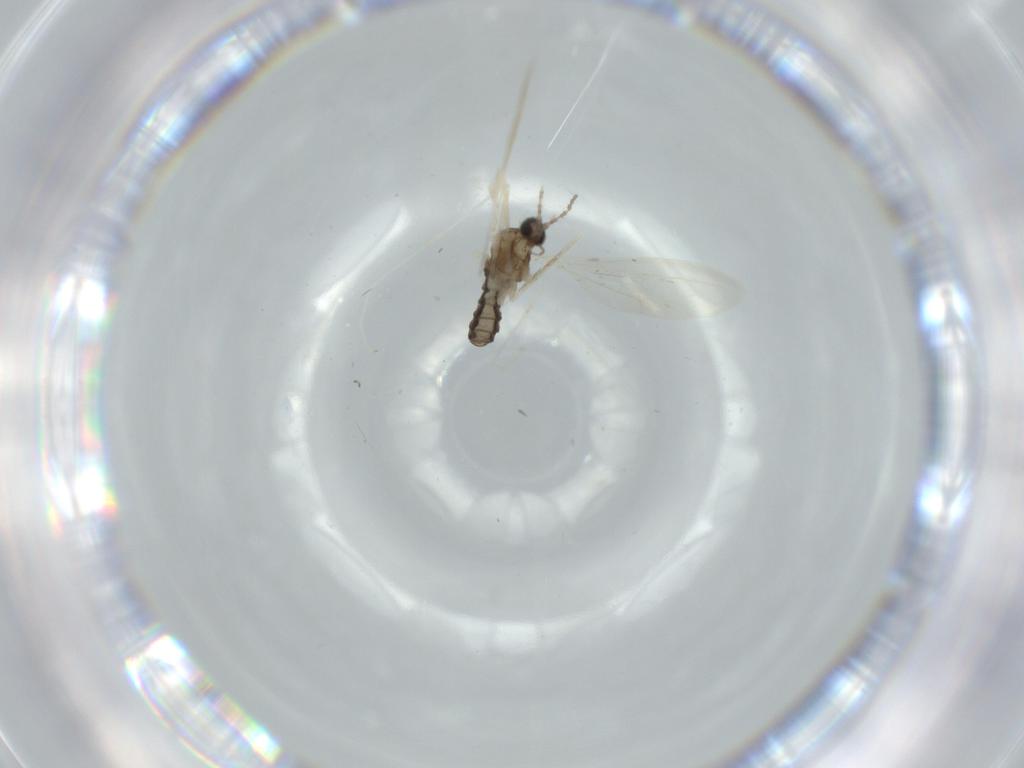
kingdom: Animalia
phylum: Arthropoda
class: Insecta
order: Diptera
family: Cecidomyiidae
